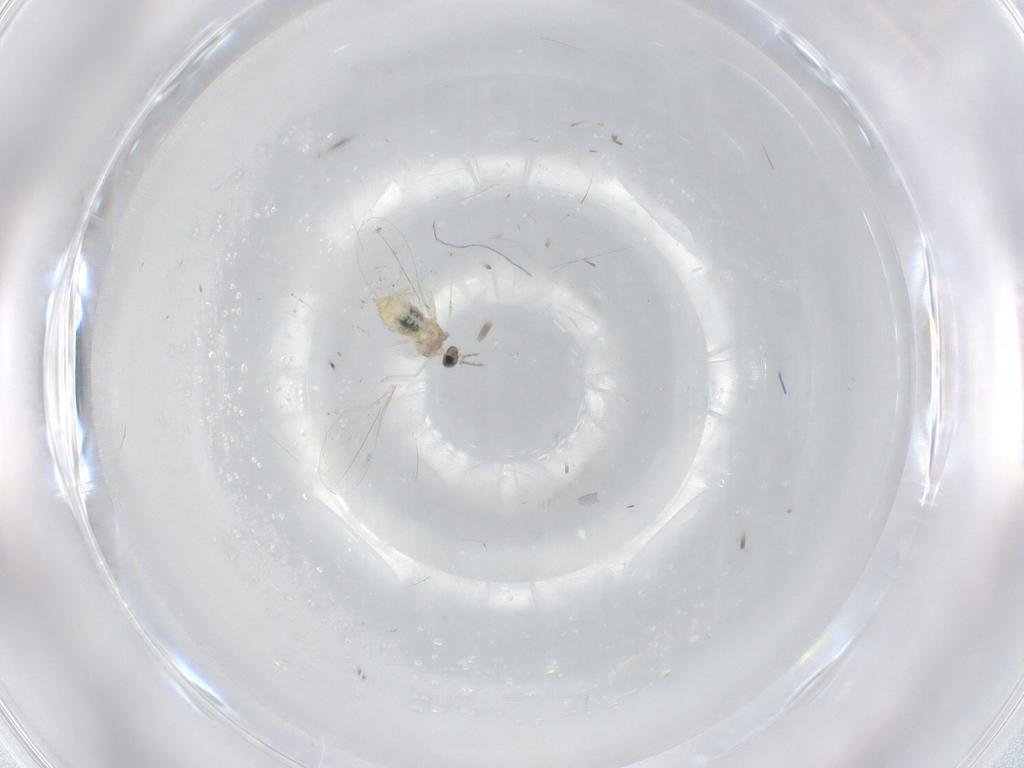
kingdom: Animalia
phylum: Arthropoda
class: Insecta
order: Diptera
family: Cecidomyiidae
